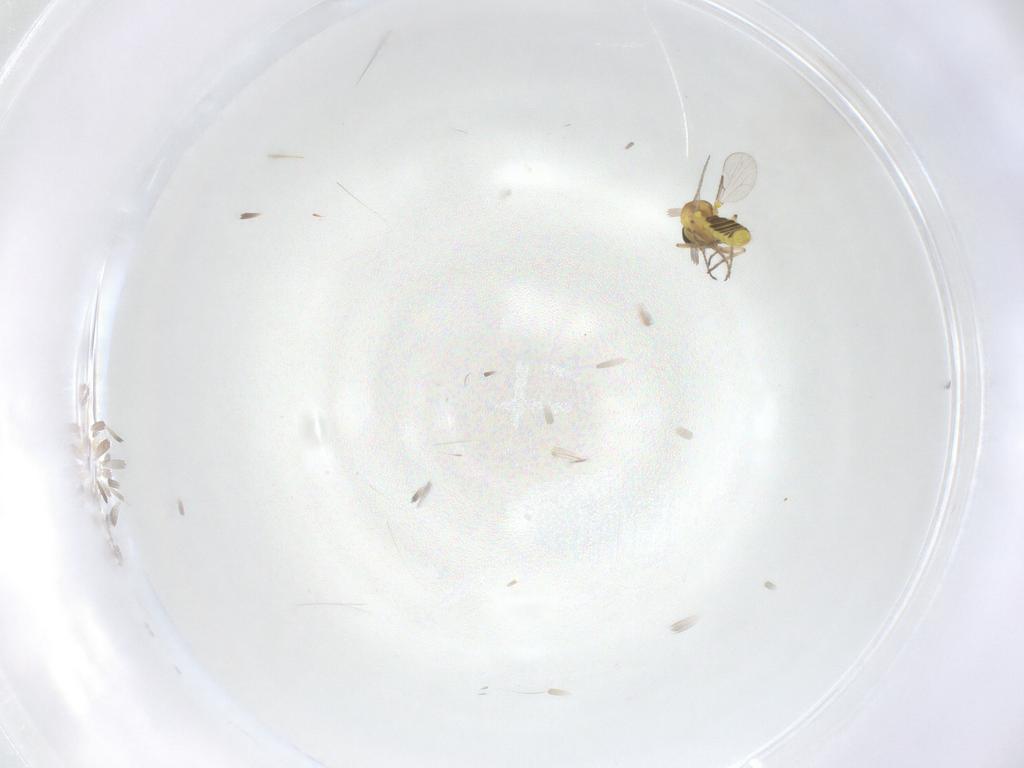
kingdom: Animalia
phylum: Arthropoda
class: Insecta
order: Diptera
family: Ceratopogonidae
